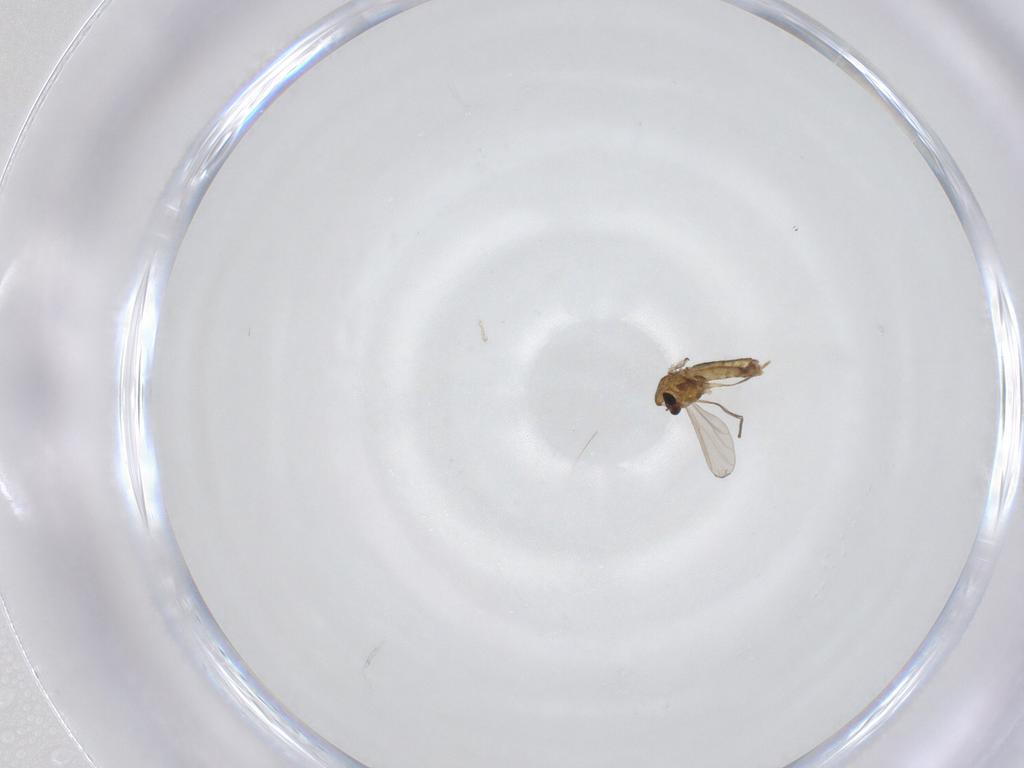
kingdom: Animalia
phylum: Arthropoda
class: Insecta
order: Diptera
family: Chironomidae
